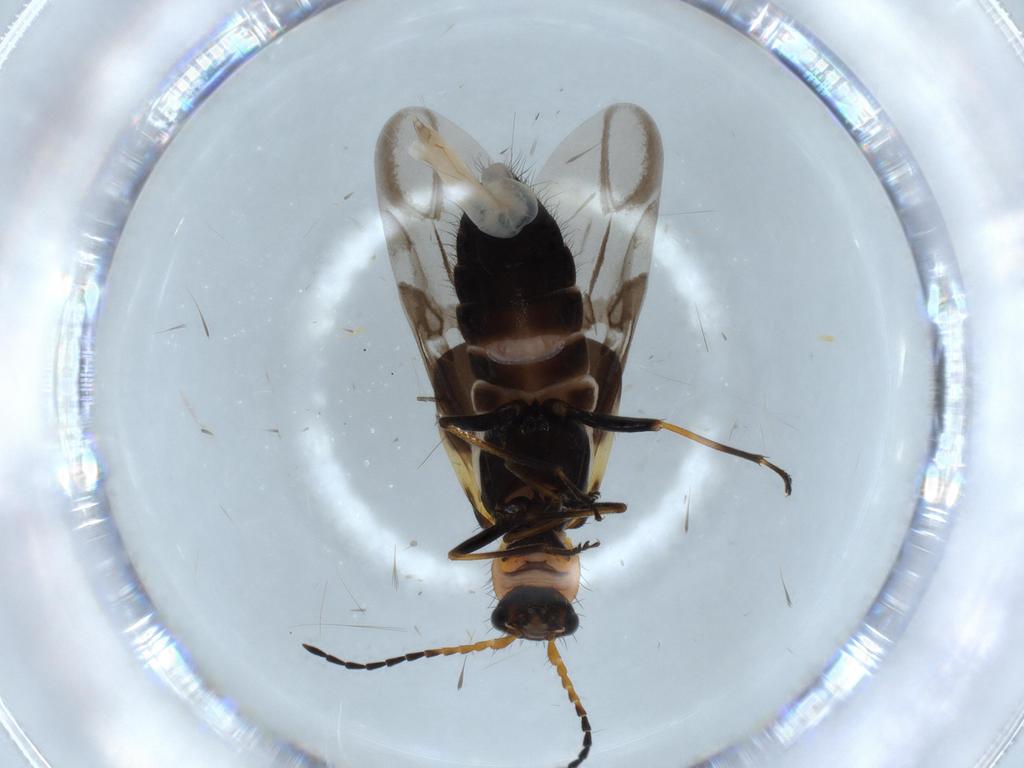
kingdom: Animalia
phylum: Arthropoda
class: Insecta
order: Coleoptera
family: Melyridae
